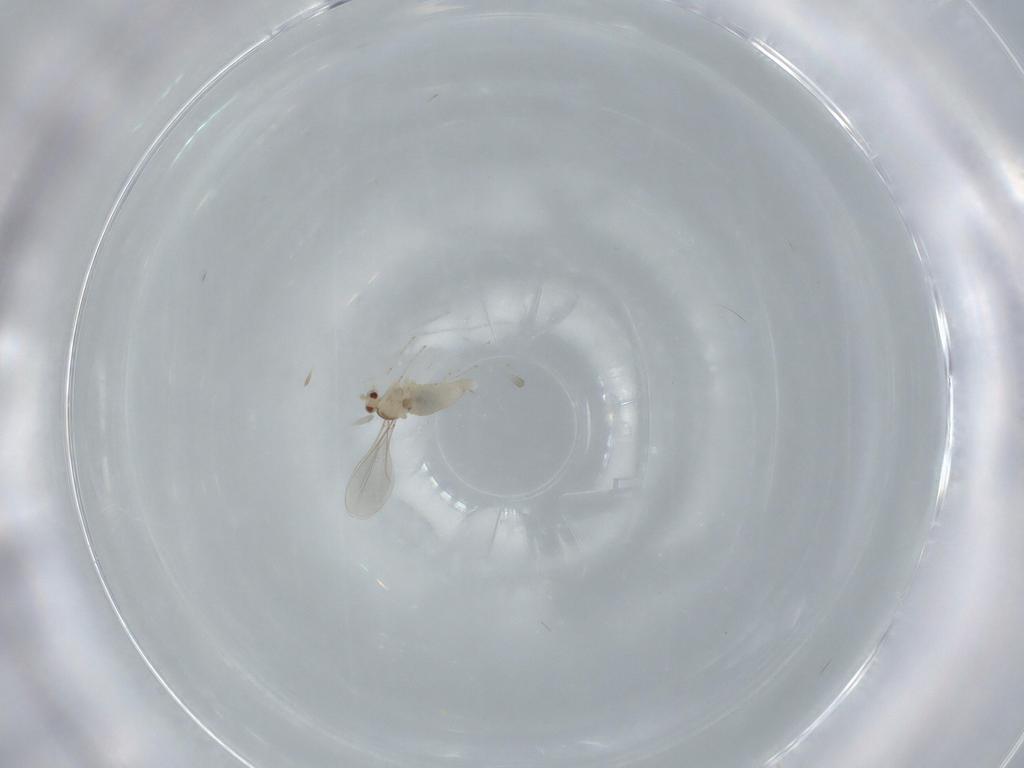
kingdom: Animalia
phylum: Arthropoda
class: Insecta
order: Diptera
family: Cecidomyiidae
